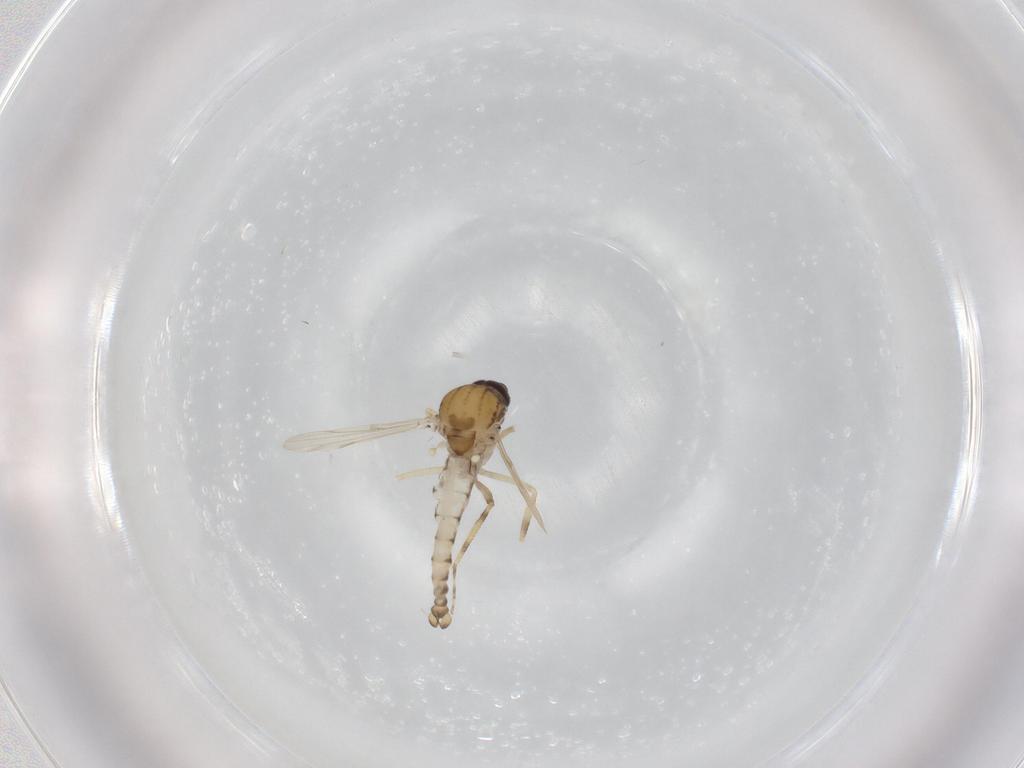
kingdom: Animalia
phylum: Arthropoda
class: Insecta
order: Diptera
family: Ceratopogonidae
